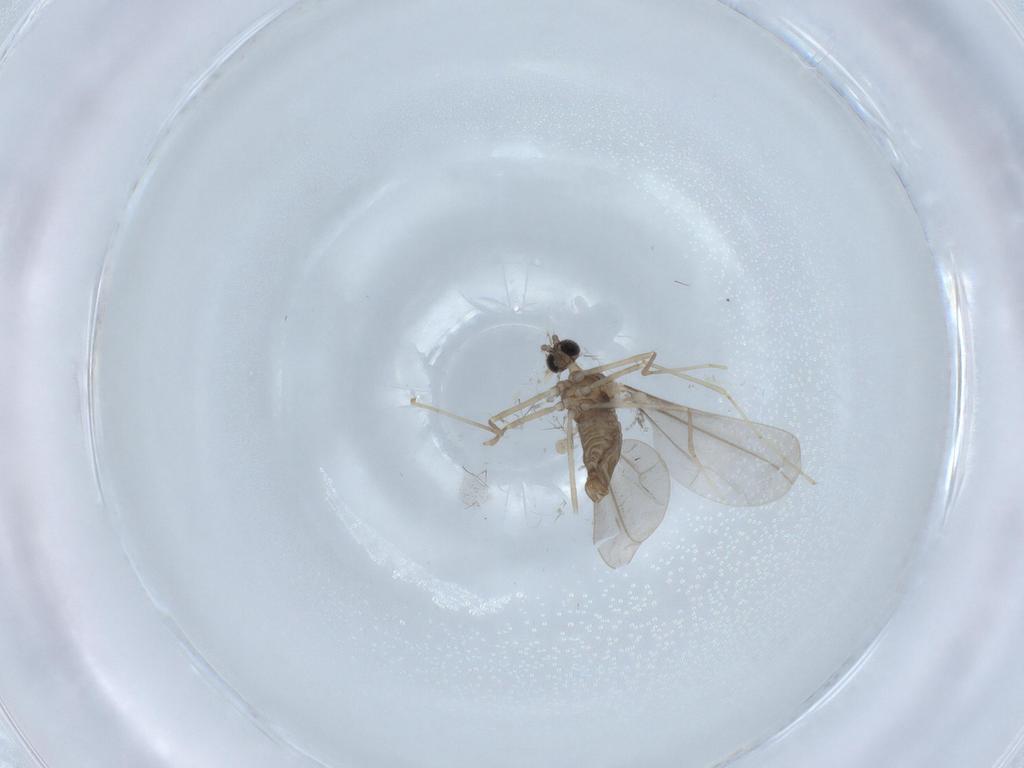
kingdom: Animalia
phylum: Arthropoda
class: Insecta
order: Diptera
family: Cecidomyiidae
